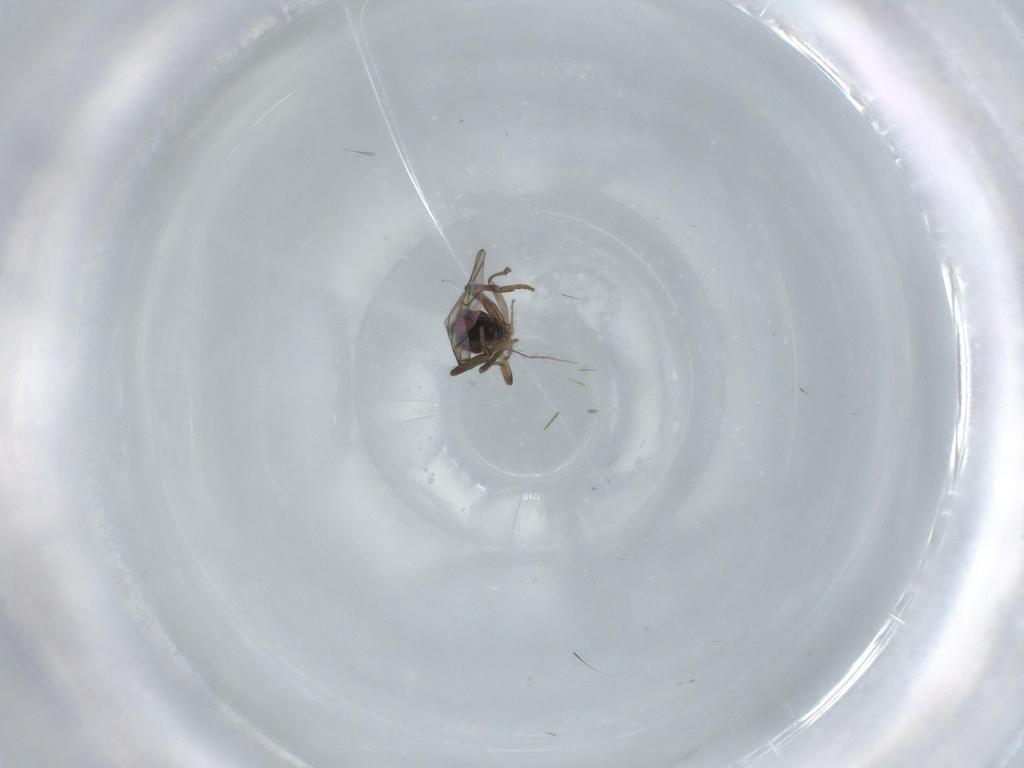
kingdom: Animalia
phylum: Arthropoda
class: Insecta
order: Diptera
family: Phoridae
